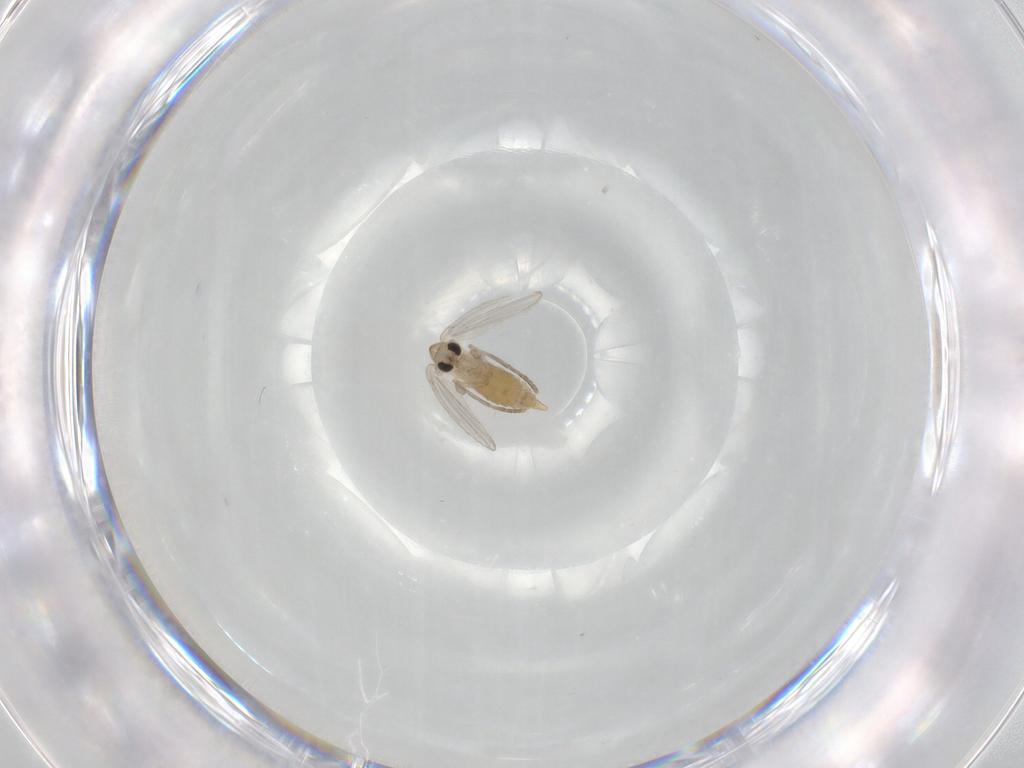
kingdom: Animalia
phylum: Arthropoda
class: Insecta
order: Diptera
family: Psychodidae
